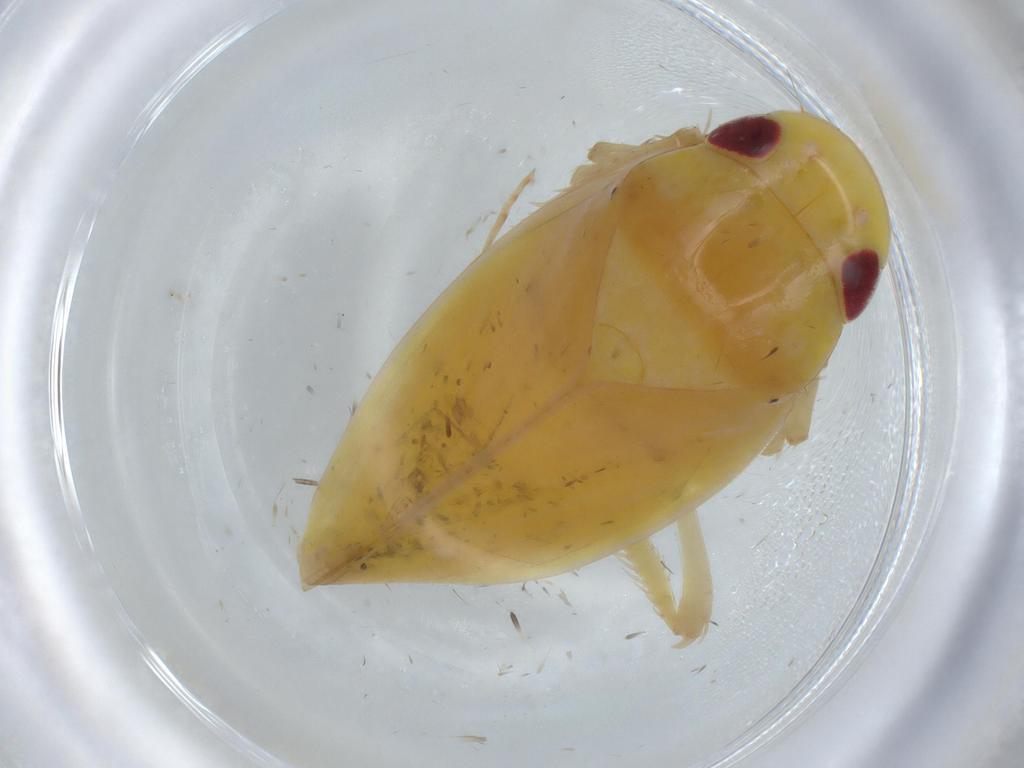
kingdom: Animalia
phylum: Arthropoda
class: Insecta
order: Hemiptera
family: Cicadellidae
